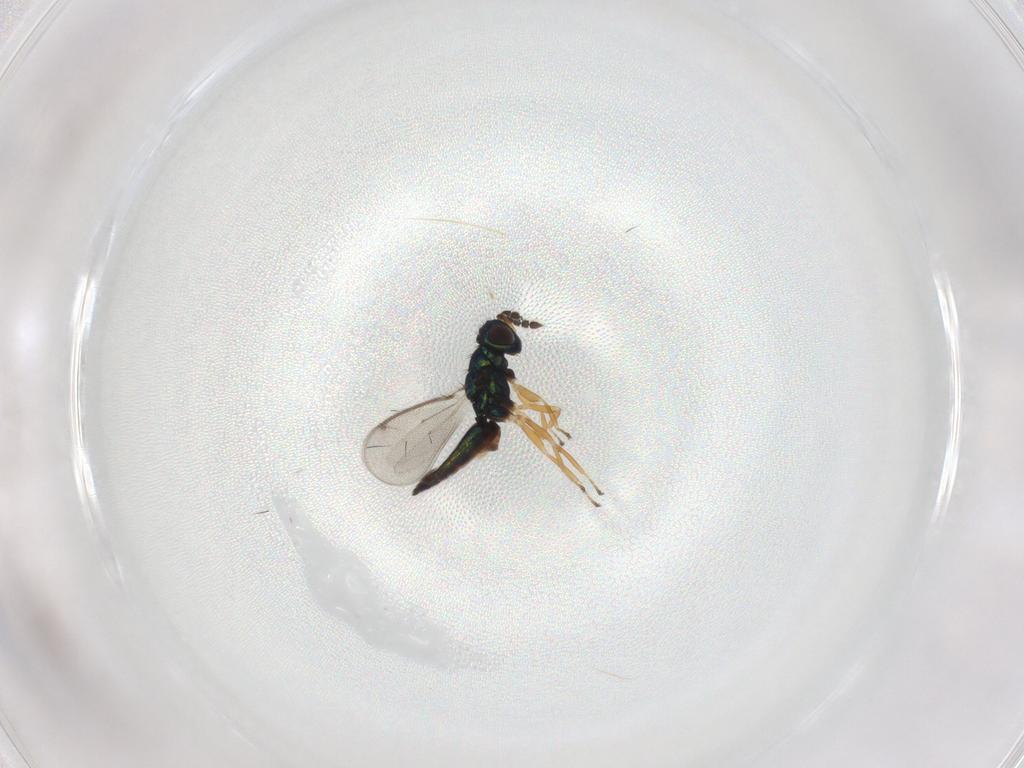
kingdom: Animalia
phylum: Arthropoda
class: Insecta
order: Hymenoptera
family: Eulophidae
